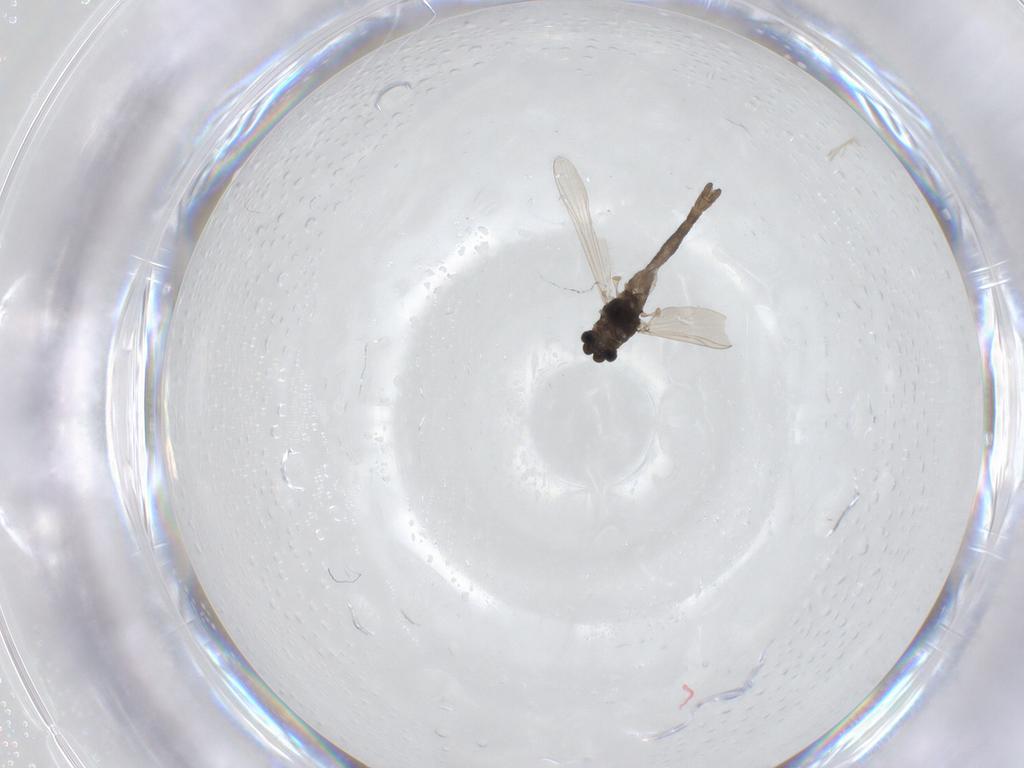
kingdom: Animalia
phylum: Arthropoda
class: Insecta
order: Diptera
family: Chironomidae
